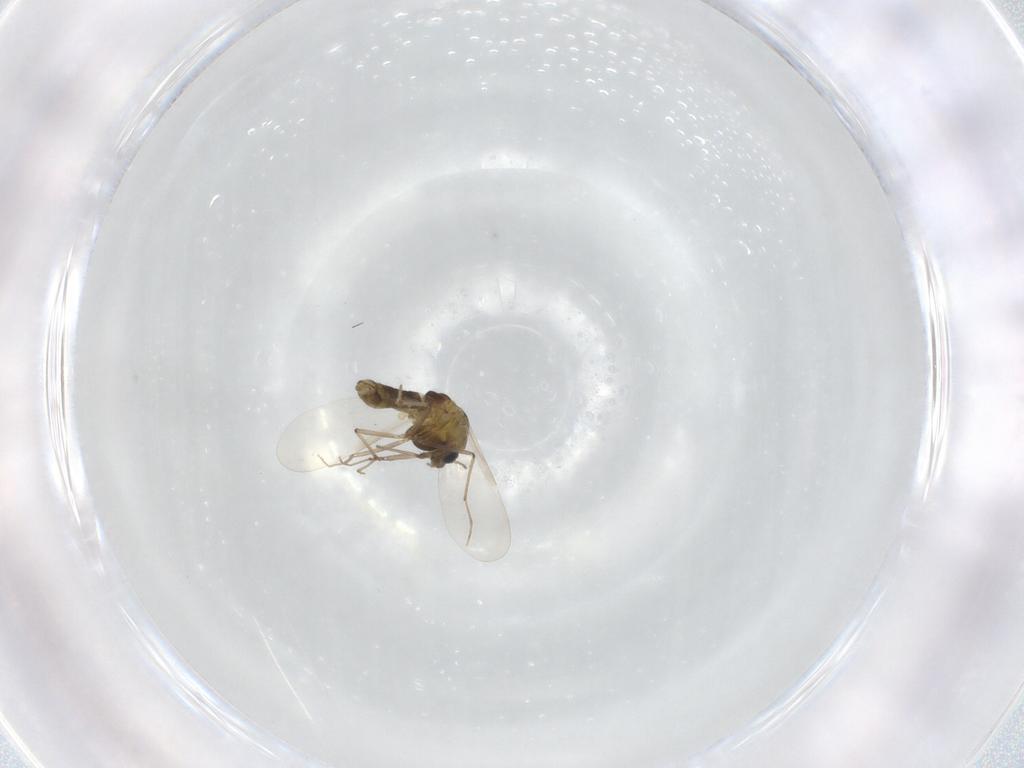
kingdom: Animalia
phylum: Arthropoda
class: Insecta
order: Diptera
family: Chironomidae
